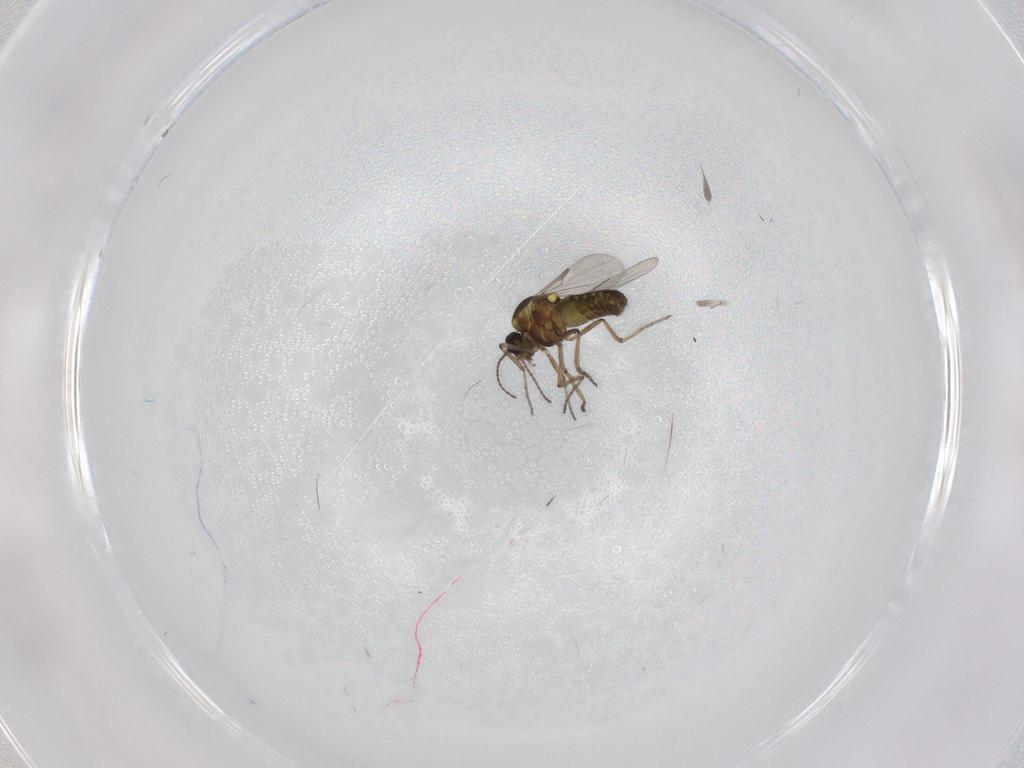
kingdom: Animalia
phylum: Arthropoda
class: Insecta
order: Diptera
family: Ceratopogonidae
